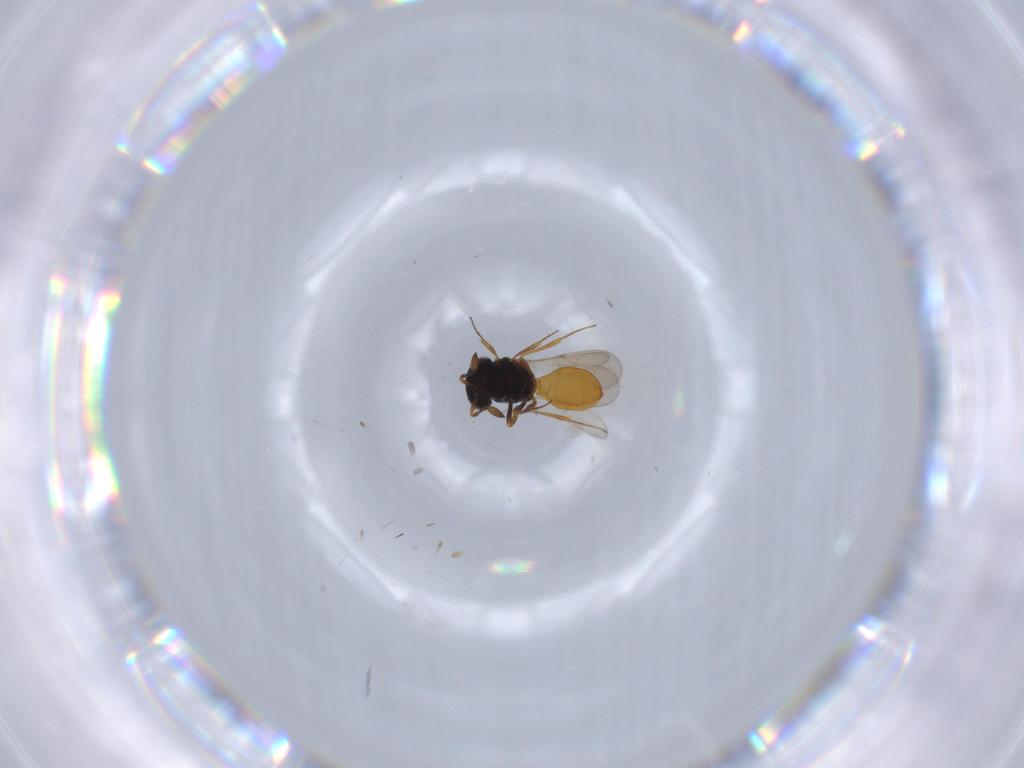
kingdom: Animalia
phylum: Arthropoda
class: Insecta
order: Hymenoptera
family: Scelionidae
